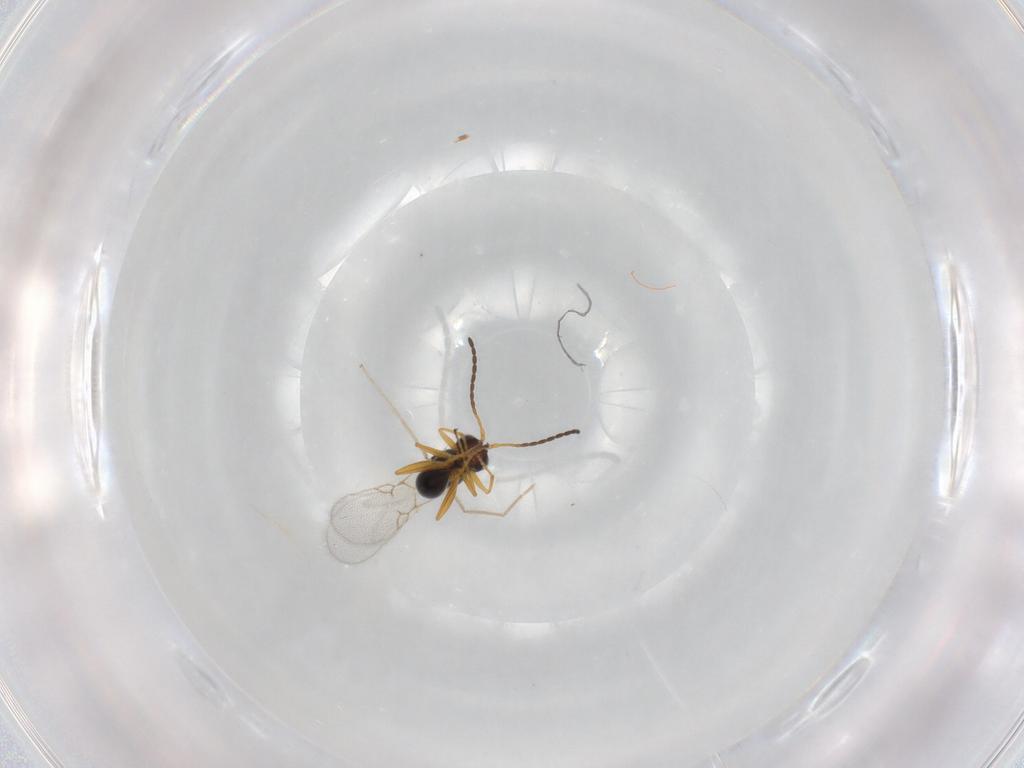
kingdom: Animalia
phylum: Arthropoda
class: Insecta
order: Hymenoptera
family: Figitidae
